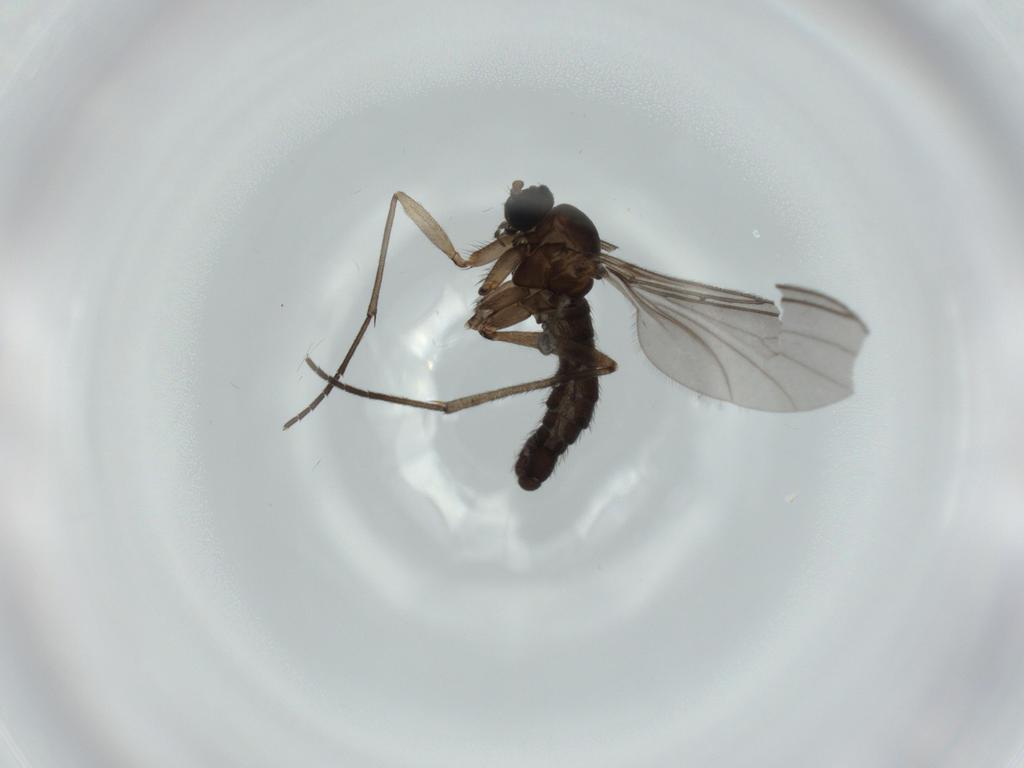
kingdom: Animalia
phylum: Arthropoda
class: Insecta
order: Diptera
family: Sciaridae
